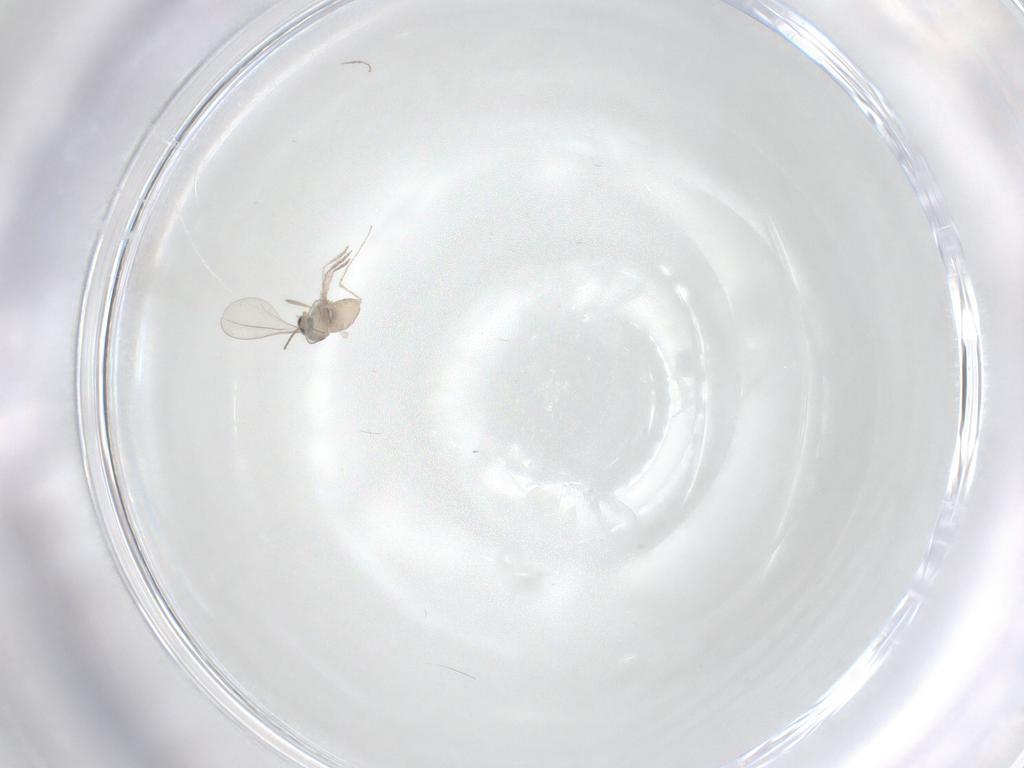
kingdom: Animalia
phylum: Arthropoda
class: Insecta
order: Diptera
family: Cecidomyiidae
